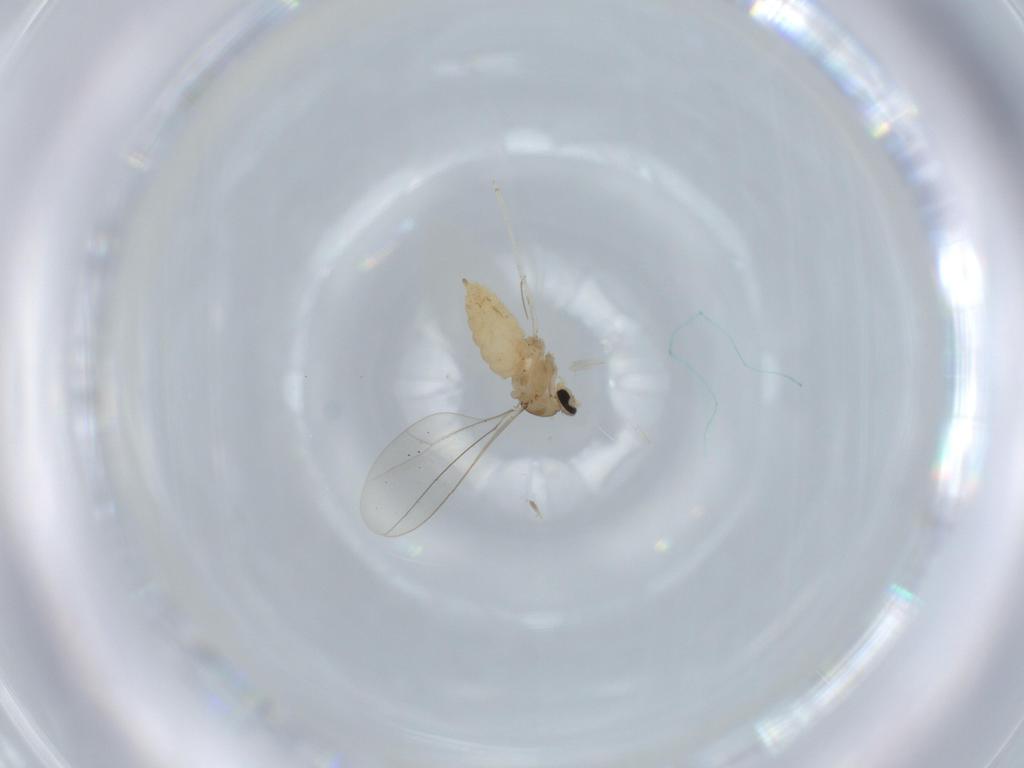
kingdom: Animalia
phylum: Arthropoda
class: Insecta
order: Diptera
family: Cecidomyiidae
